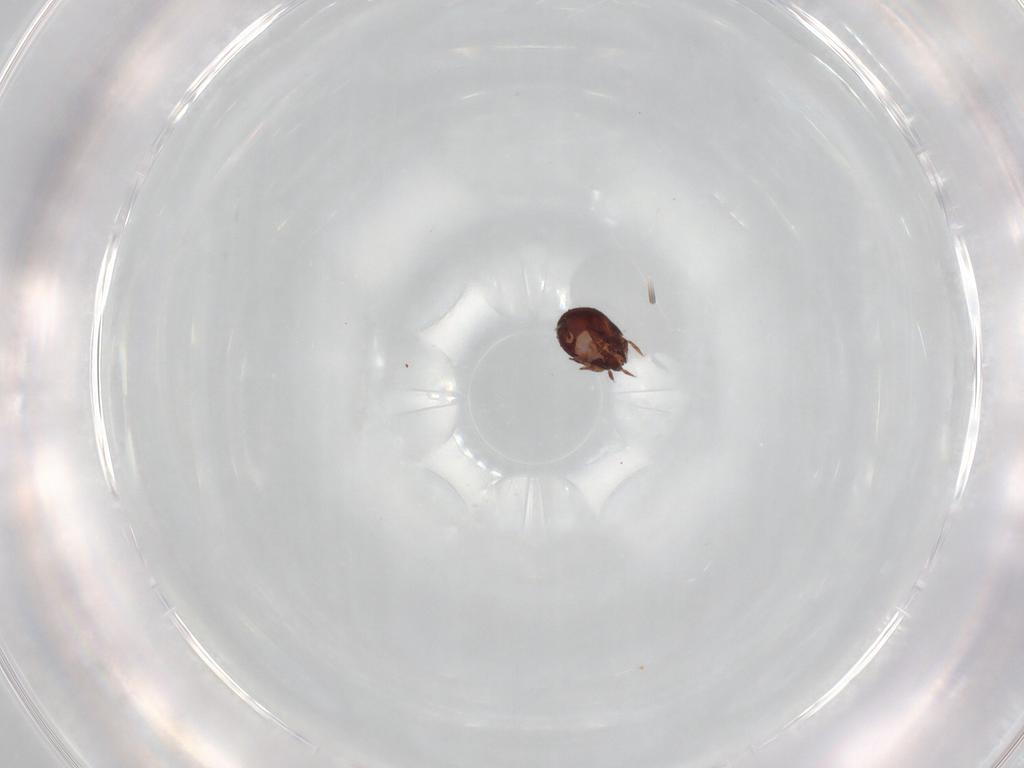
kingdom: Animalia
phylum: Arthropoda
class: Arachnida
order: Sarcoptiformes
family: Humerobatidae
